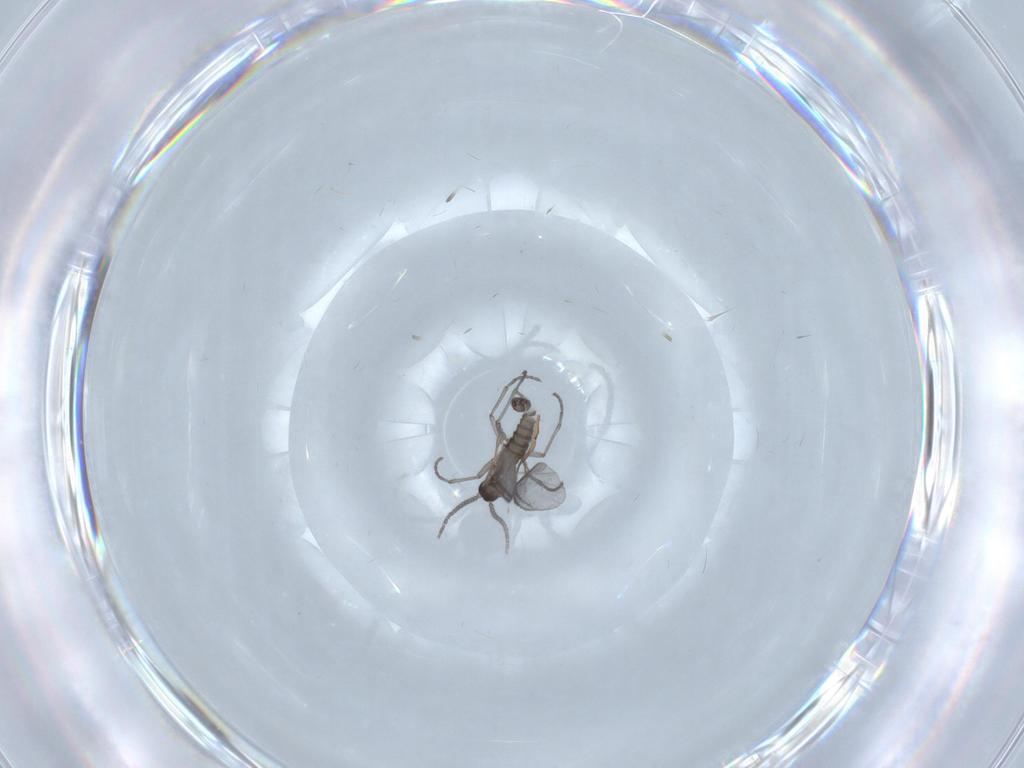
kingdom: Animalia
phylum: Arthropoda
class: Insecta
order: Diptera
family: Sciaridae
